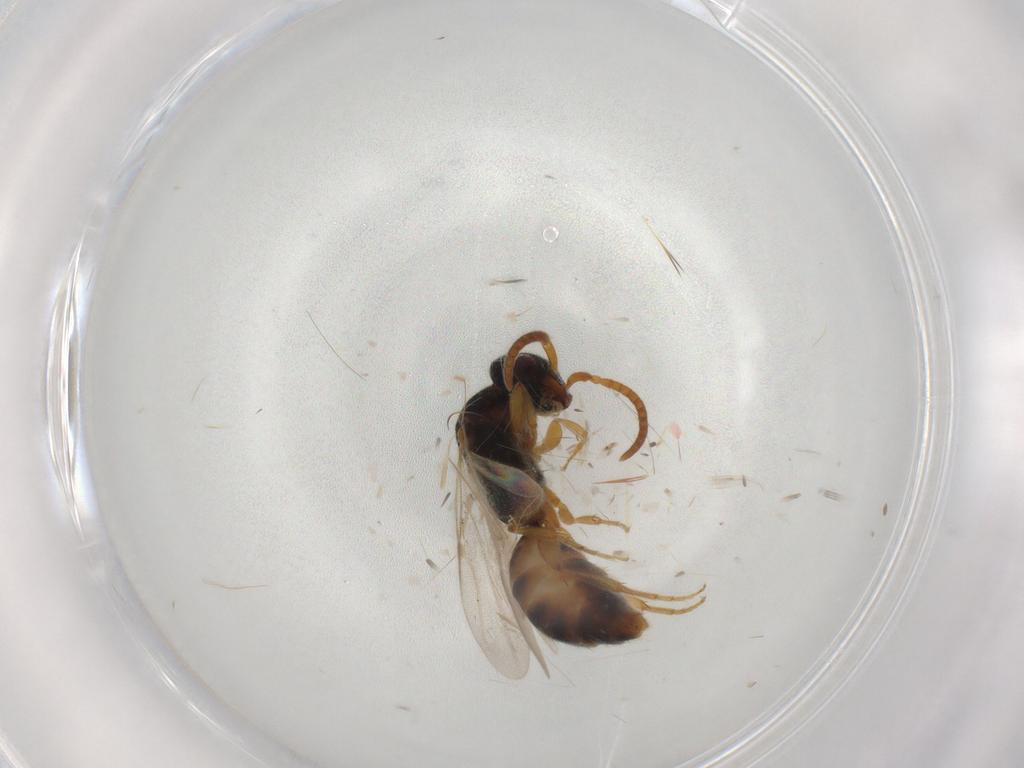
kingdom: Animalia
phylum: Arthropoda
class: Insecta
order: Hymenoptera
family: Bethylidae
